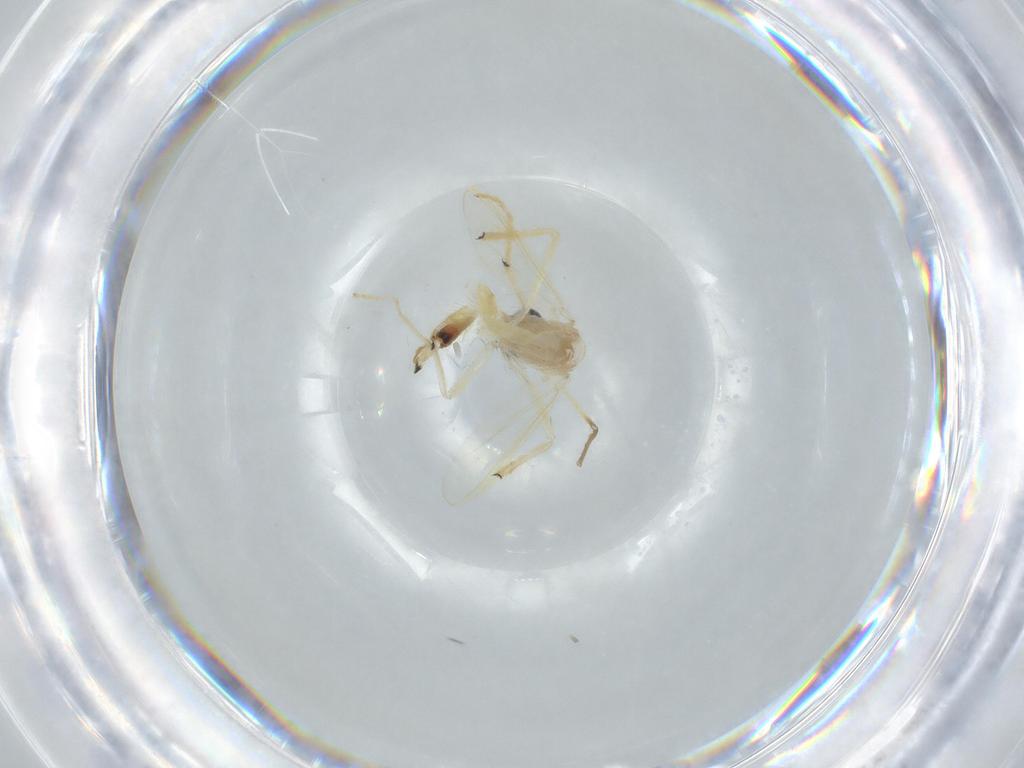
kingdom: Animalia
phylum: Arthropoda
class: Insecta
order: Diptera
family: Chironomidae
